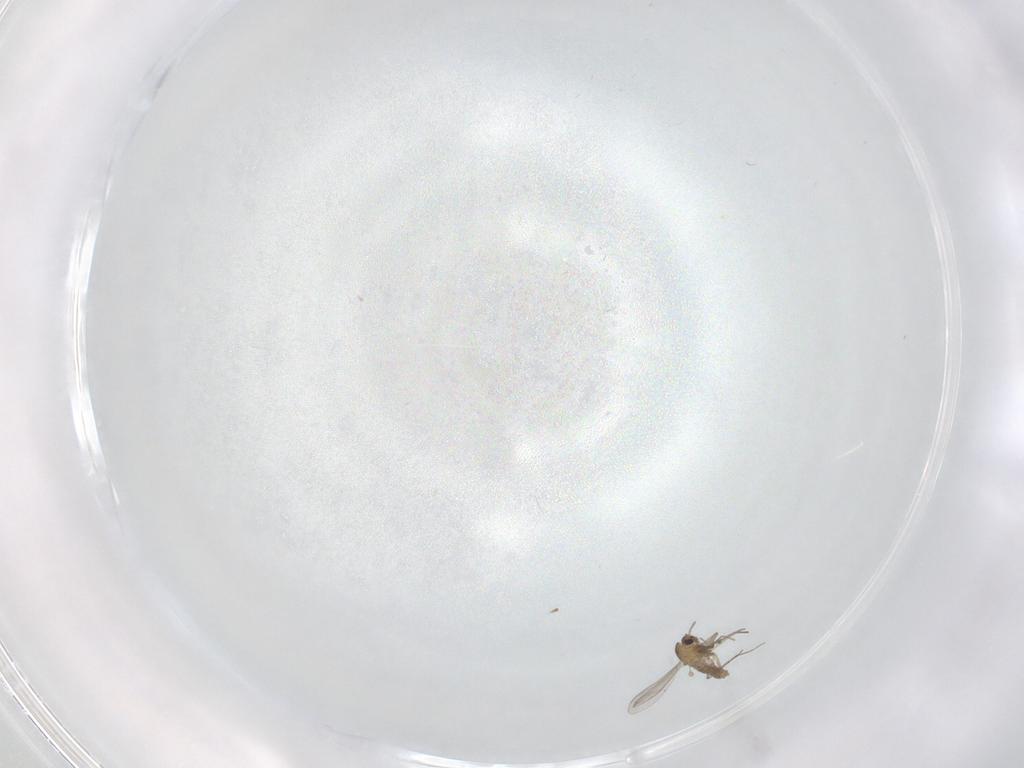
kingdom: Animalia
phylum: Arthropoda
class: Insecta
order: Diptera
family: Chironomidae
